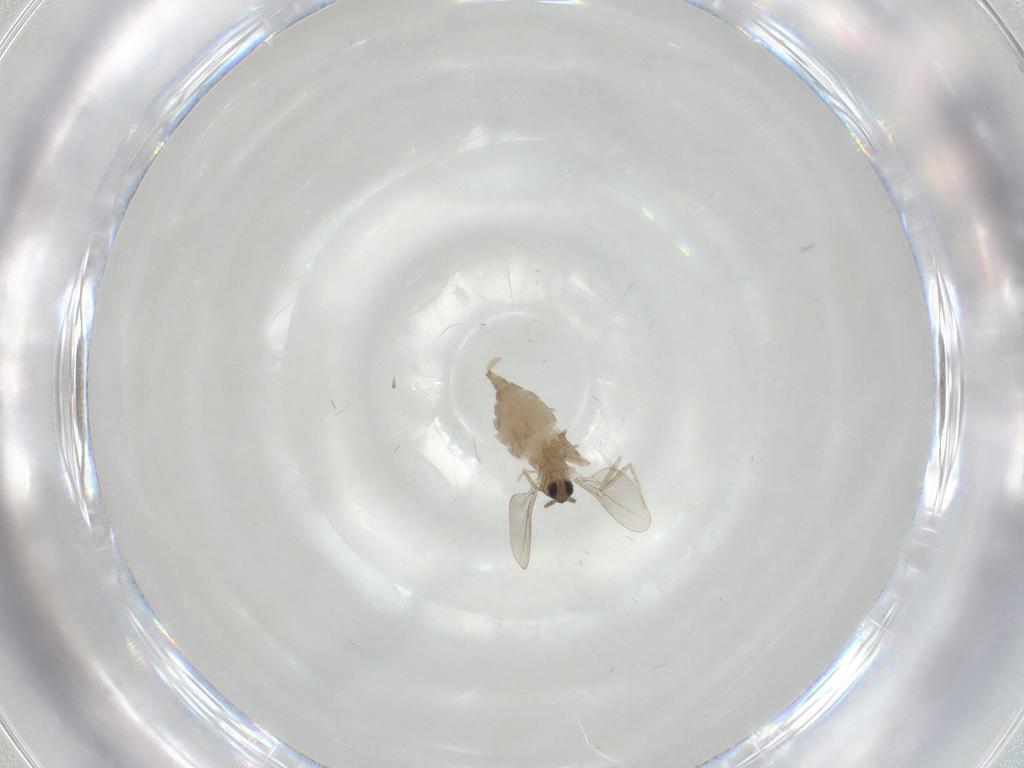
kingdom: Animalia
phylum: Arthropoda
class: Insecta
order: Diptera
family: Cecidomyiidae
